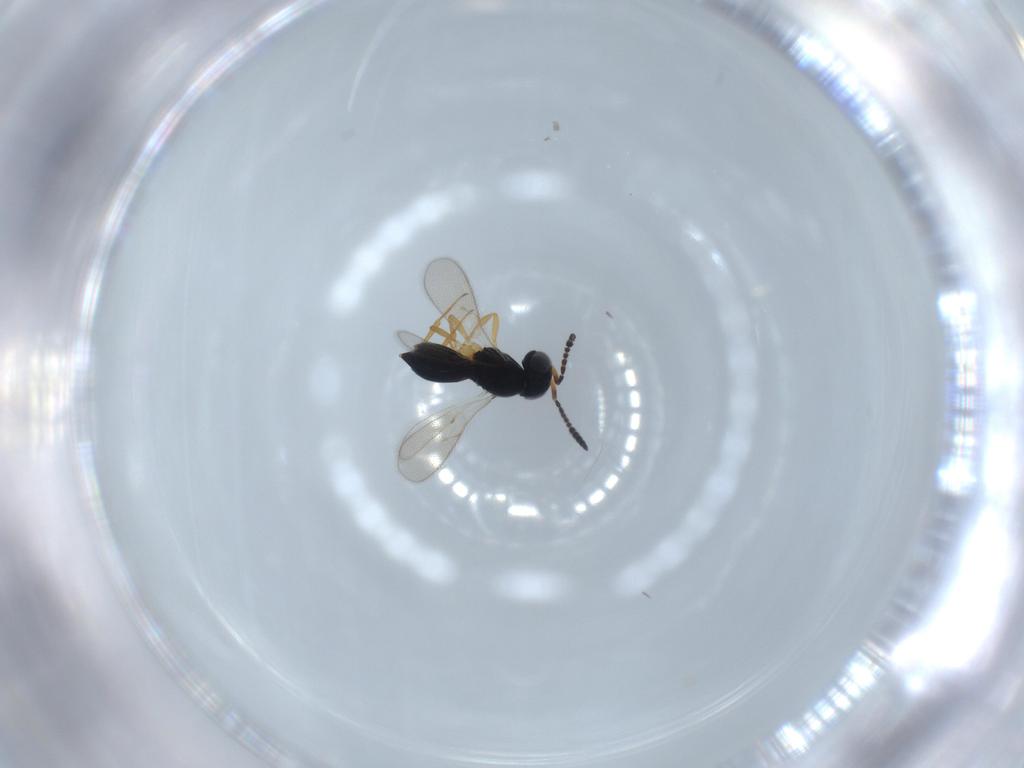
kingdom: Animalia
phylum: Arthropoda
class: Insecta
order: Hymenoptera
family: Scelionidae
